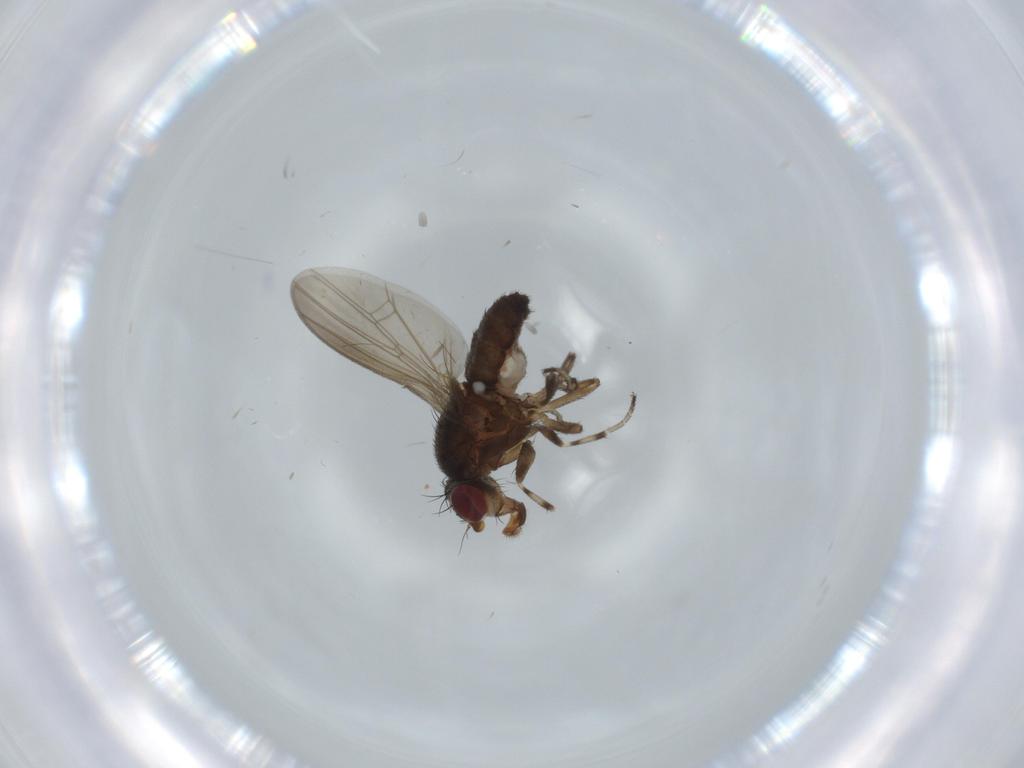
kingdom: Animalia
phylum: Arthropoda
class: Insecta
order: Diptera
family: Heleomyzidae
